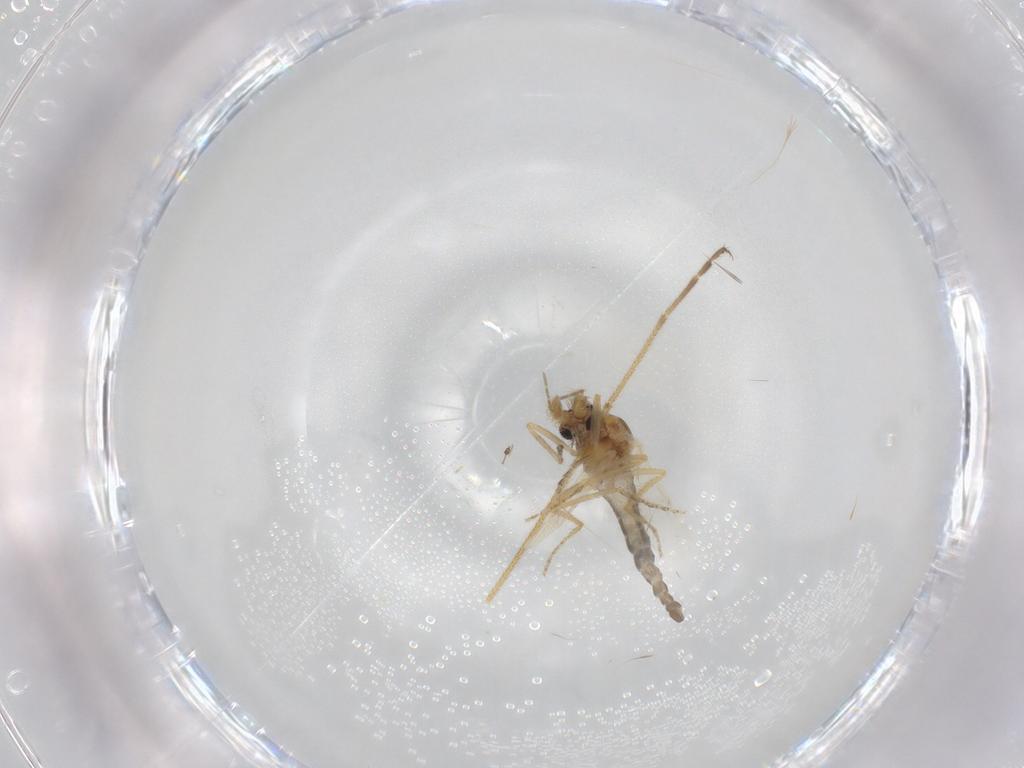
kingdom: Animalia
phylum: Arthropoda
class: Insecta
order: Diptera
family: Ceratopogonidae
